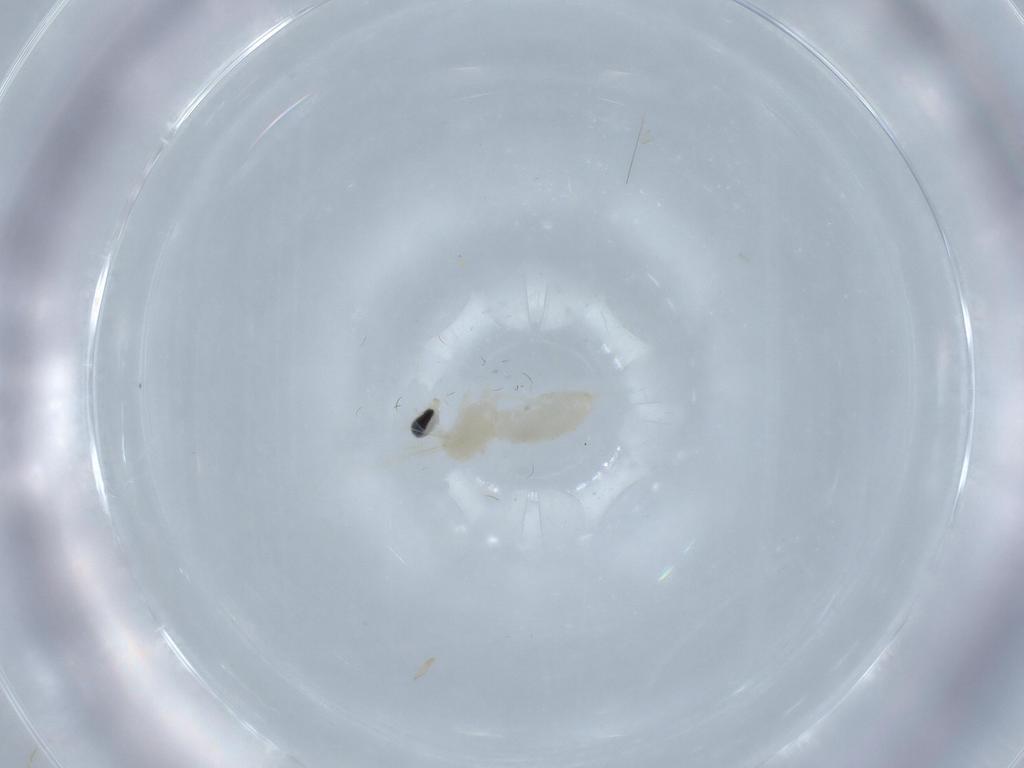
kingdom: Animalia
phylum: Arthropoda
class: Insecta
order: Diptera
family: Cecidomyiidae
